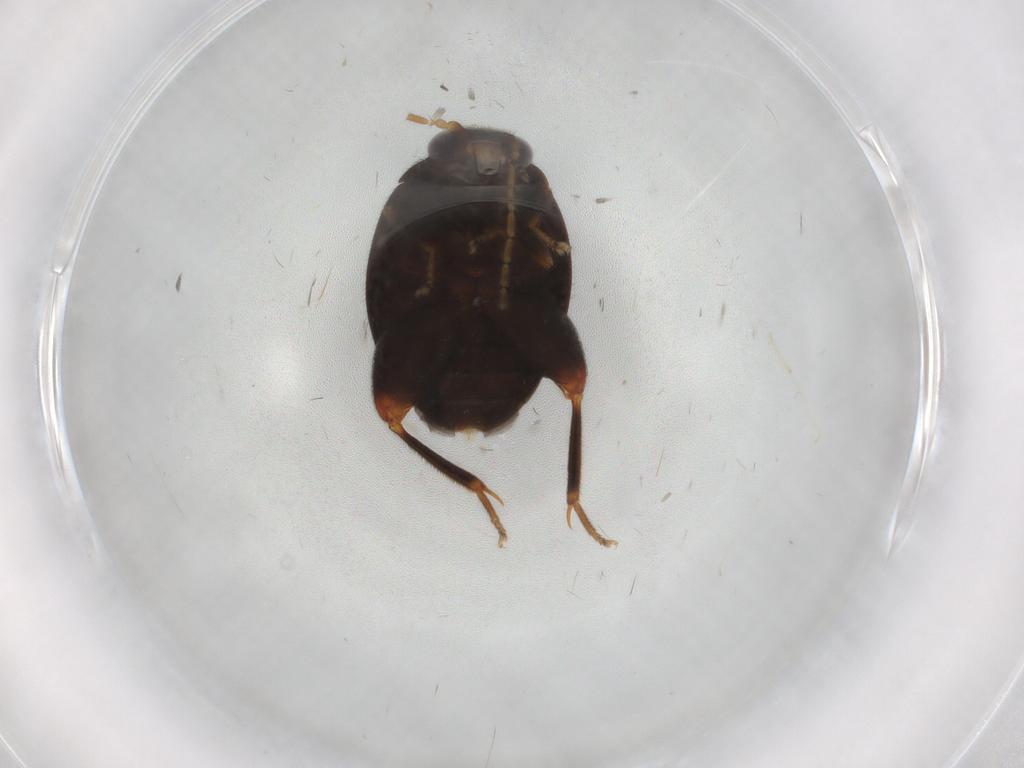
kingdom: Animalia
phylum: Arthropoda
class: Insecta
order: Coleoptera
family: Scirtidae
